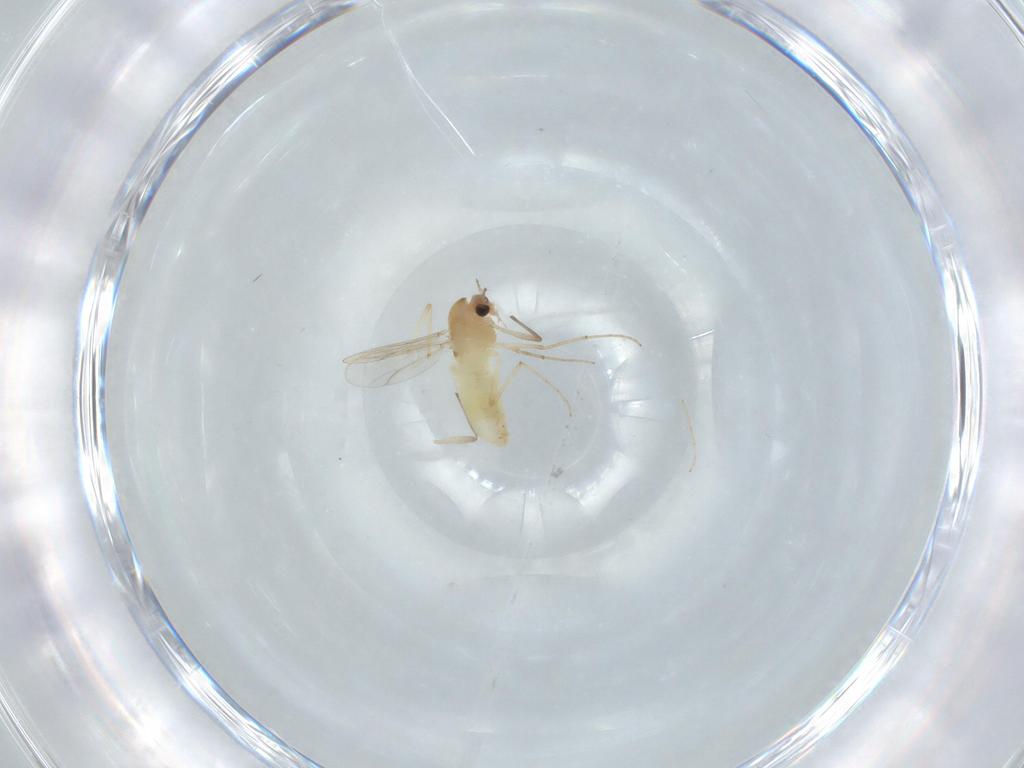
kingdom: Animalia
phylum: Arthropoda
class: Insecta
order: Diptera
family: Chironomidae
